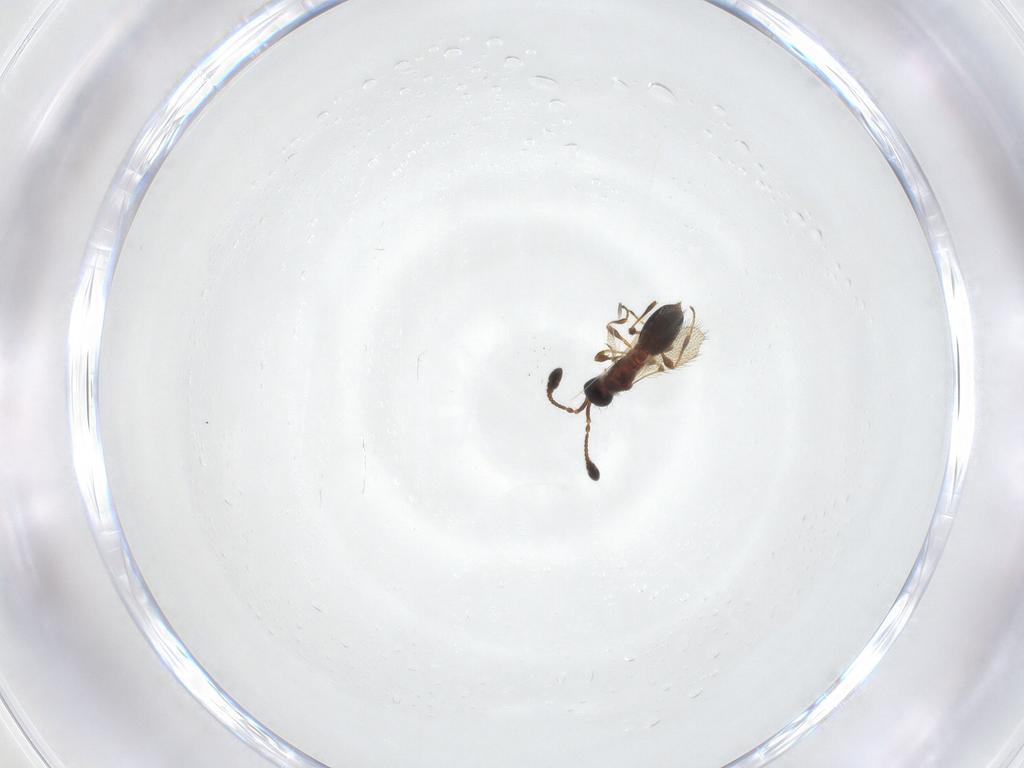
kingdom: Animalia
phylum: Arthropoda
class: Insecta
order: Hymenoptera
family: Diapriidae
